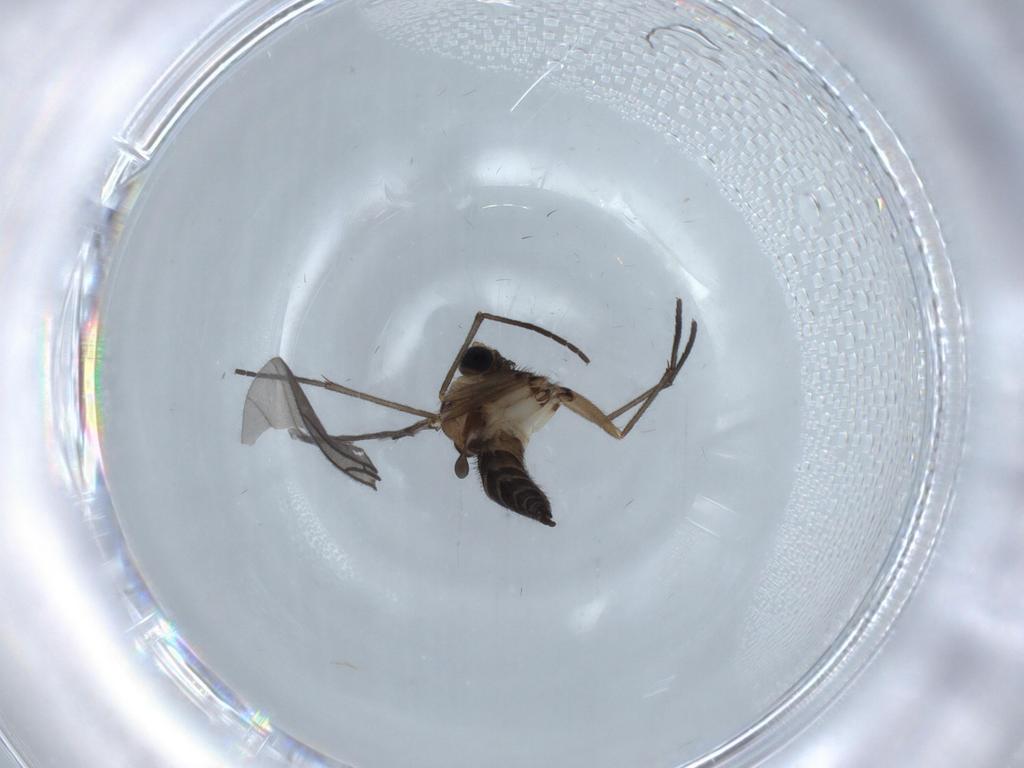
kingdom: Animalia
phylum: Arthropoda
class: Insecta
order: Diptera
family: Sciaridae
